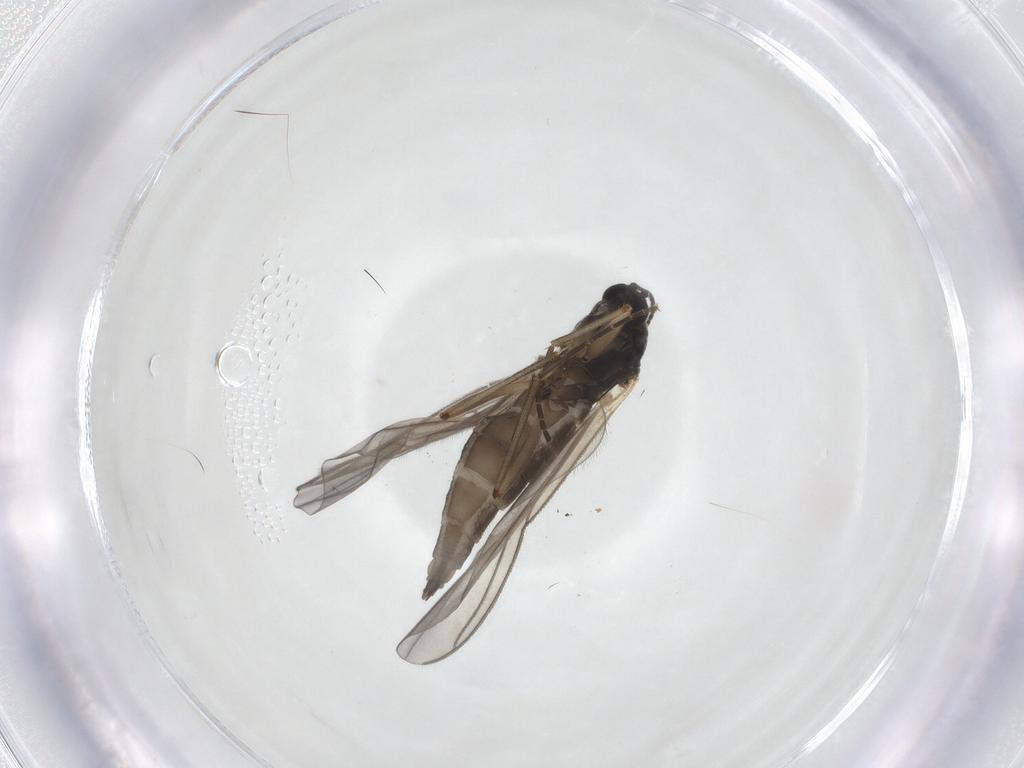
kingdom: Animalia
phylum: Arthropoda
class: Insecta
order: Diptera
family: Sciaridae
